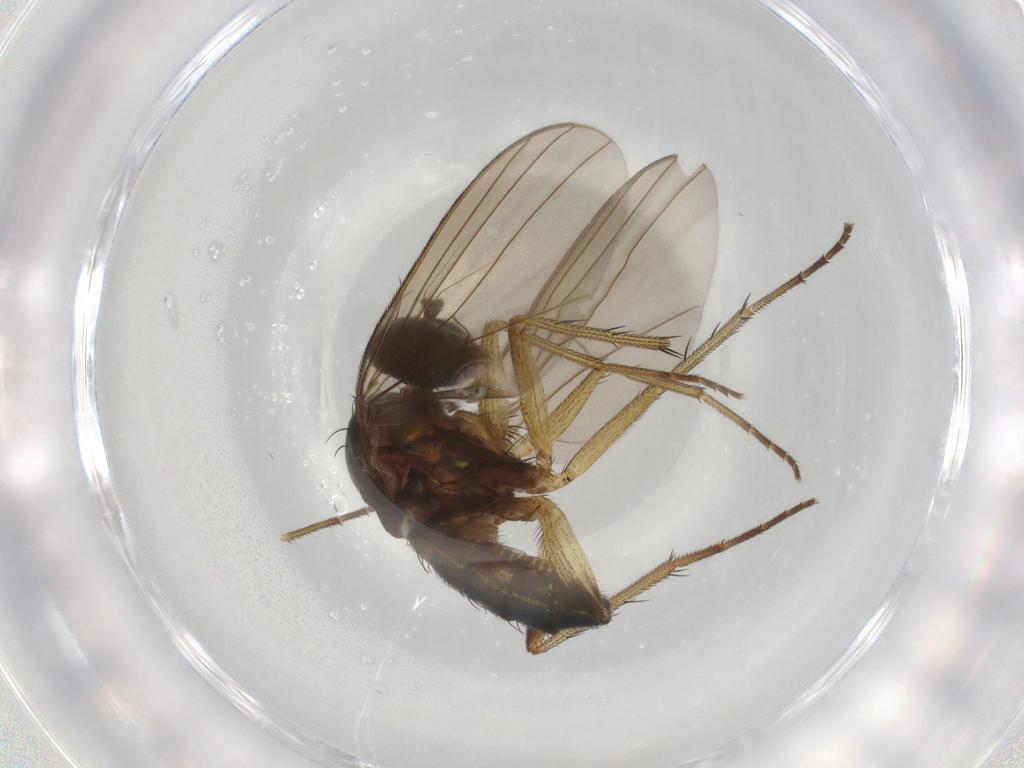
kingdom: Animalia
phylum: Arthropoda
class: Insecta
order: Diptera
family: Dolichopodidae
